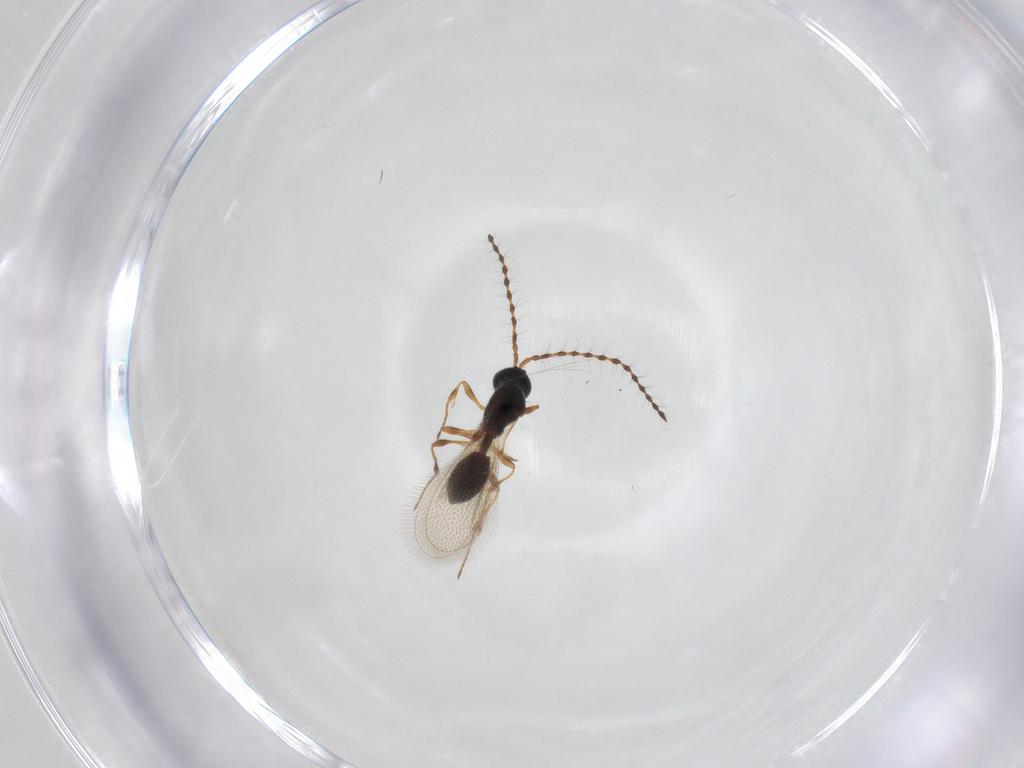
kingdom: Animalia
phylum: Arthropoda
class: Insecta
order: Hymenoptera
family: Diapriidae
